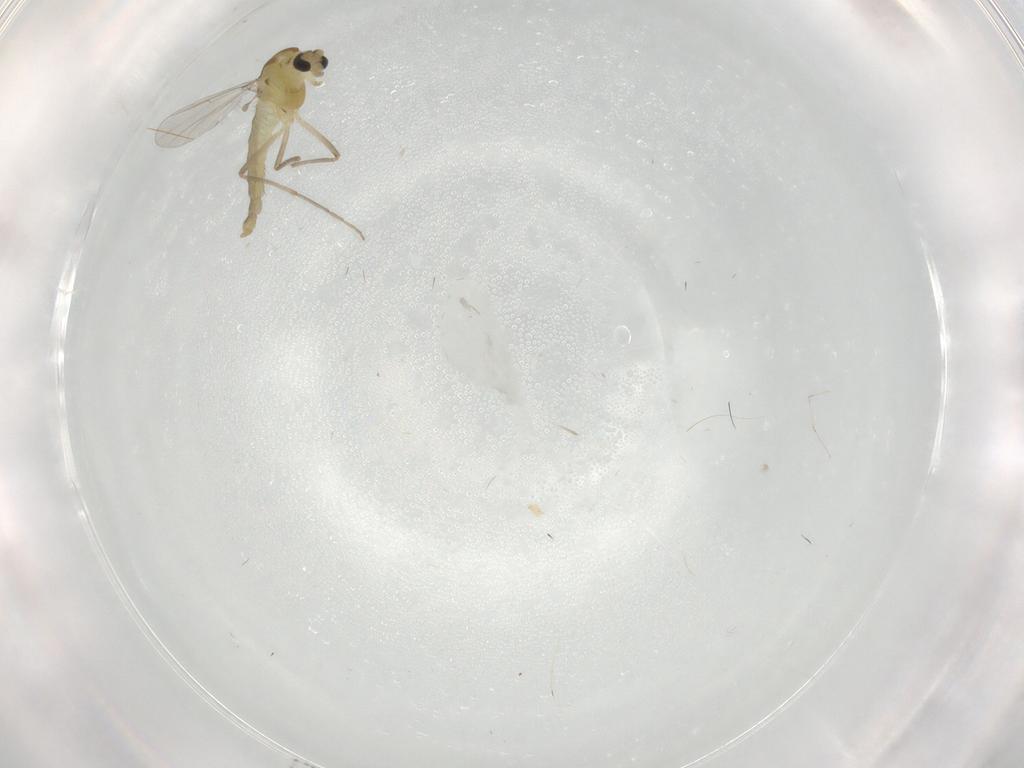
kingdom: Animalia
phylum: Arthropoda
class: Insecta
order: Diptera
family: Chironomidae
